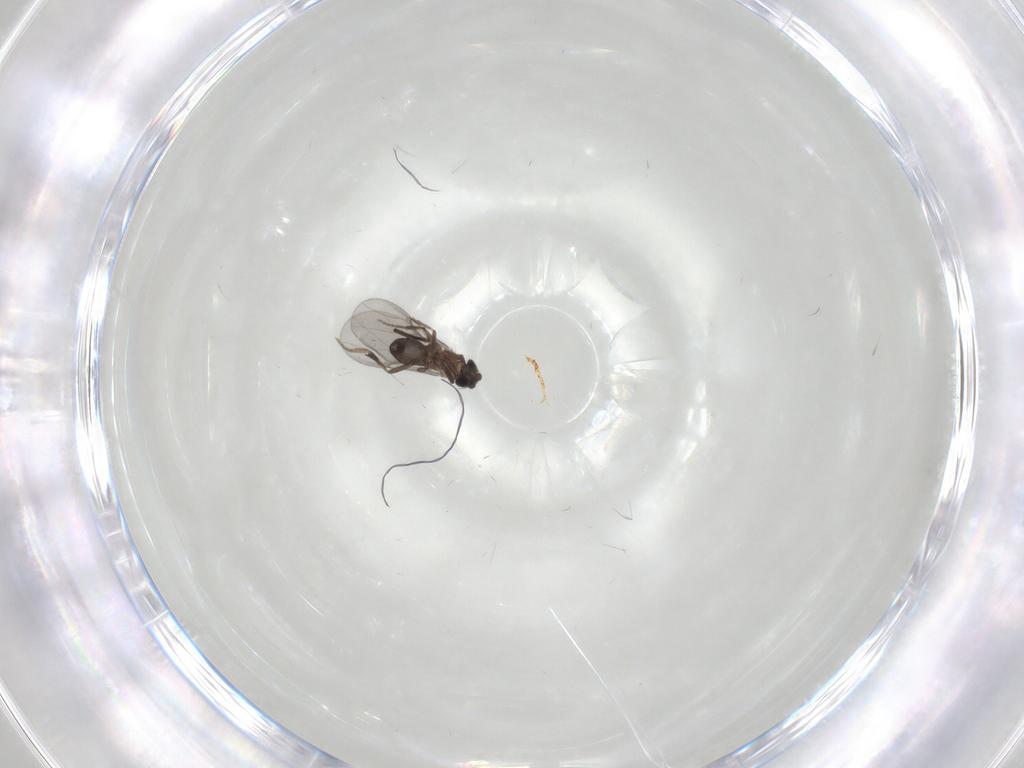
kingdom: Animalia
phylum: Arthropoda
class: Insecta
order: Diptera
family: Phoridae
